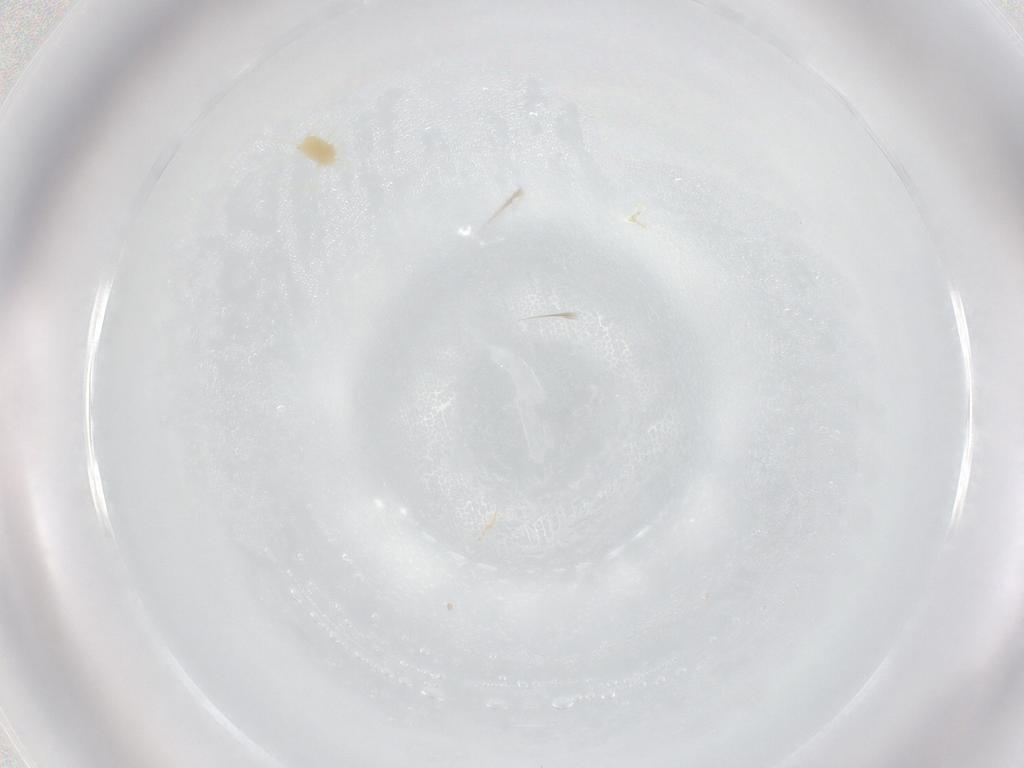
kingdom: Animalia
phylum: Arthropoda
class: Arachnida
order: Trombidiformes
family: Tetranychidae
